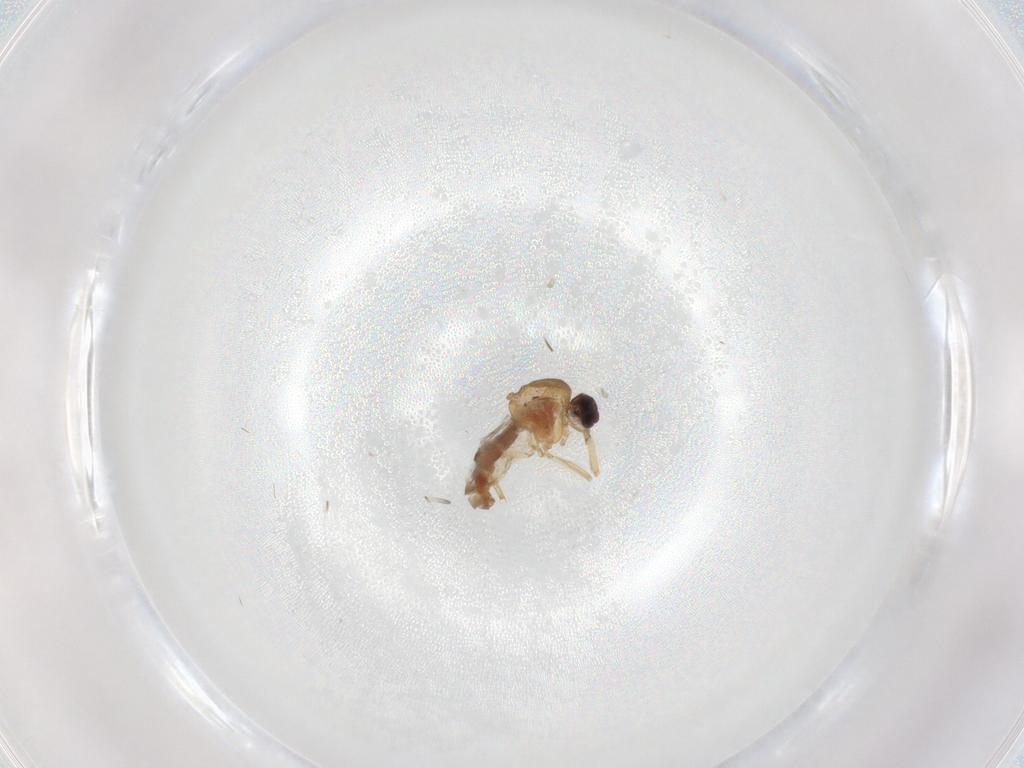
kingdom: Animalia
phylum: Arthropoda
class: Insecta
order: Diptera
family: Ceratopogonidae
